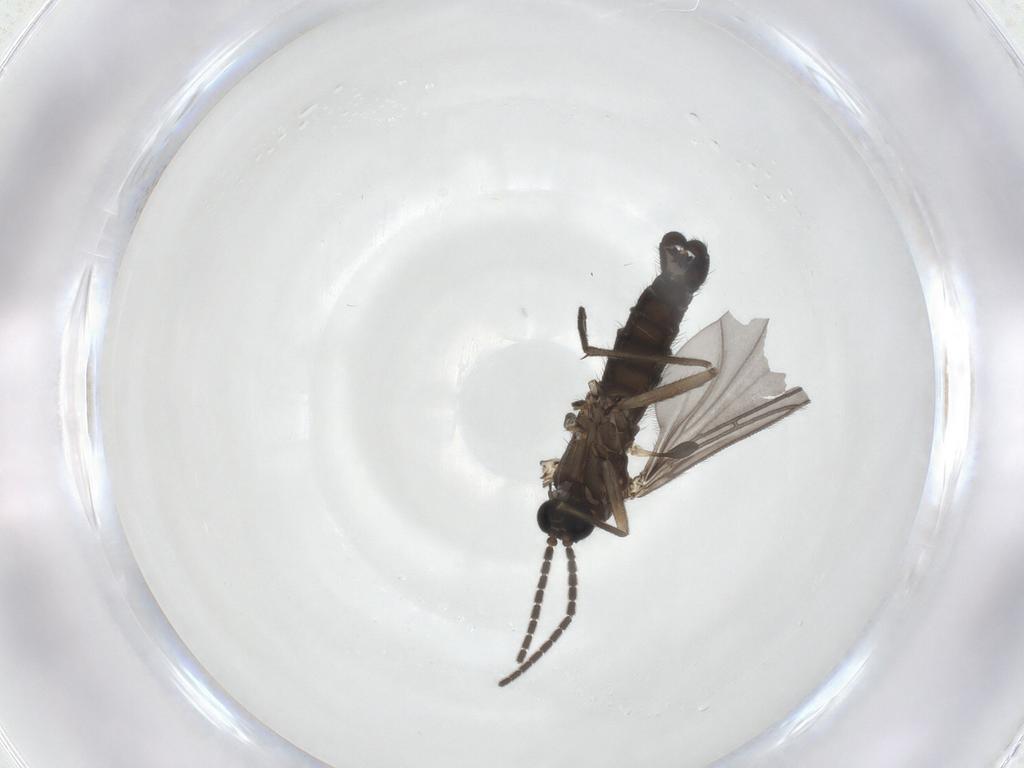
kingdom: Animalia
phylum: Arthropoda
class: Insecta
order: Diptera
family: Sciaridae
